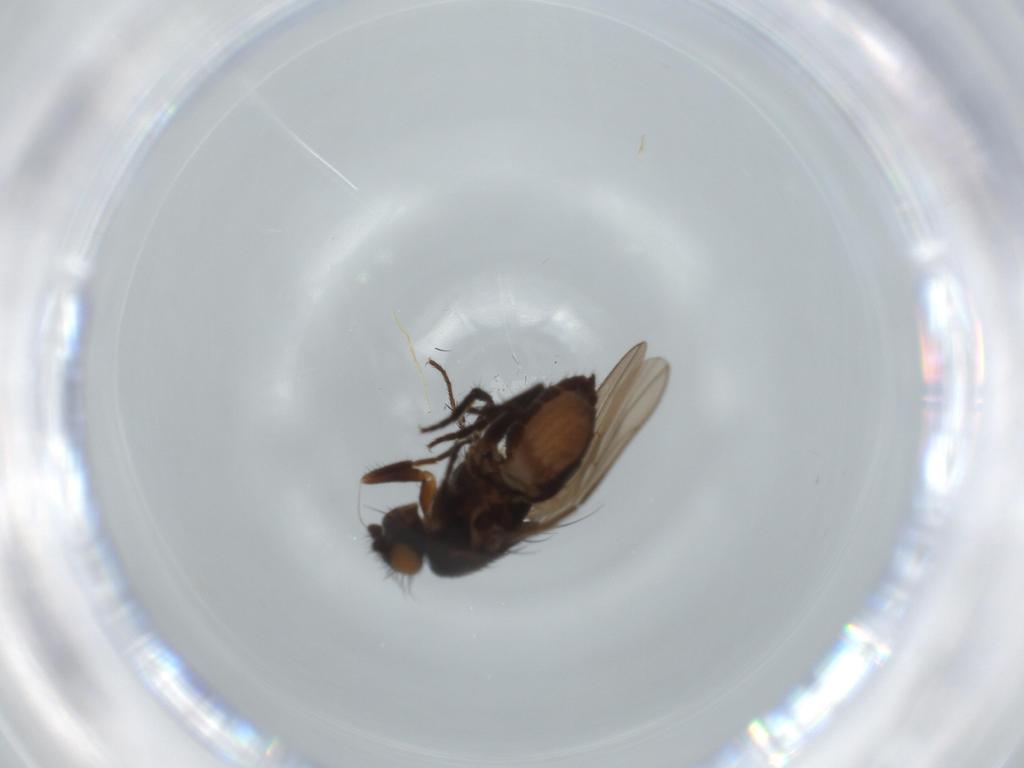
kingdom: Animalia
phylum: Arthropoda
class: Insecta
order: Diptera
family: Sphaeroceridae
